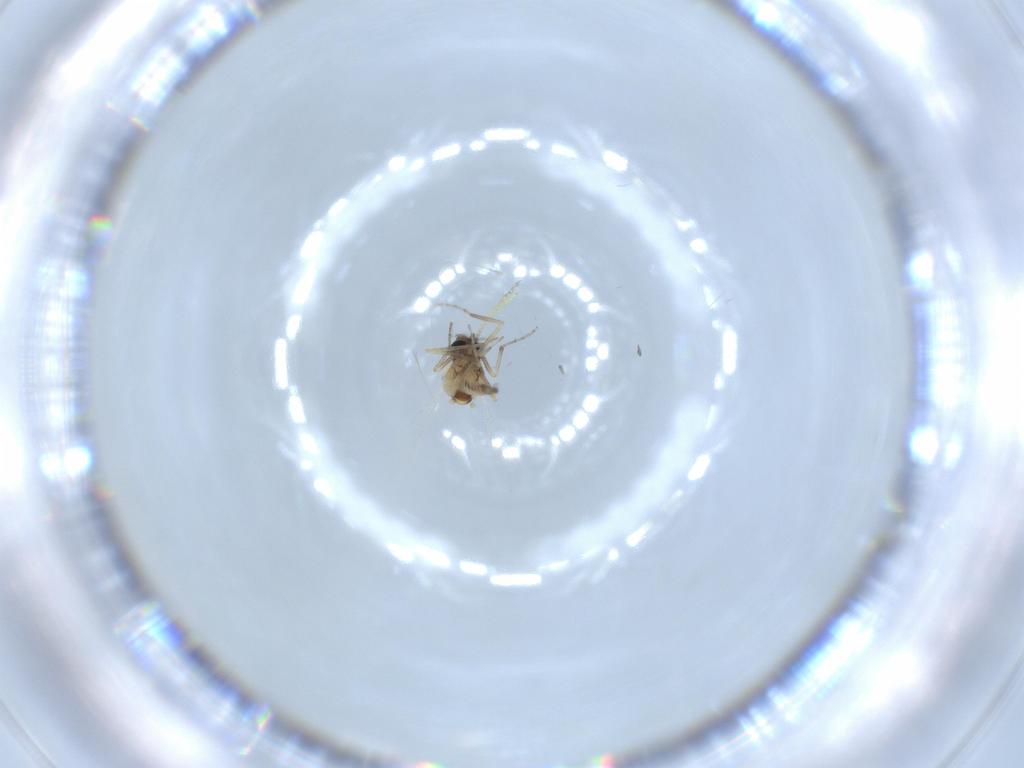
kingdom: Animalia
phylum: Arthropoda
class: Insecta
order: Diptera
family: Ceratopogonidae
